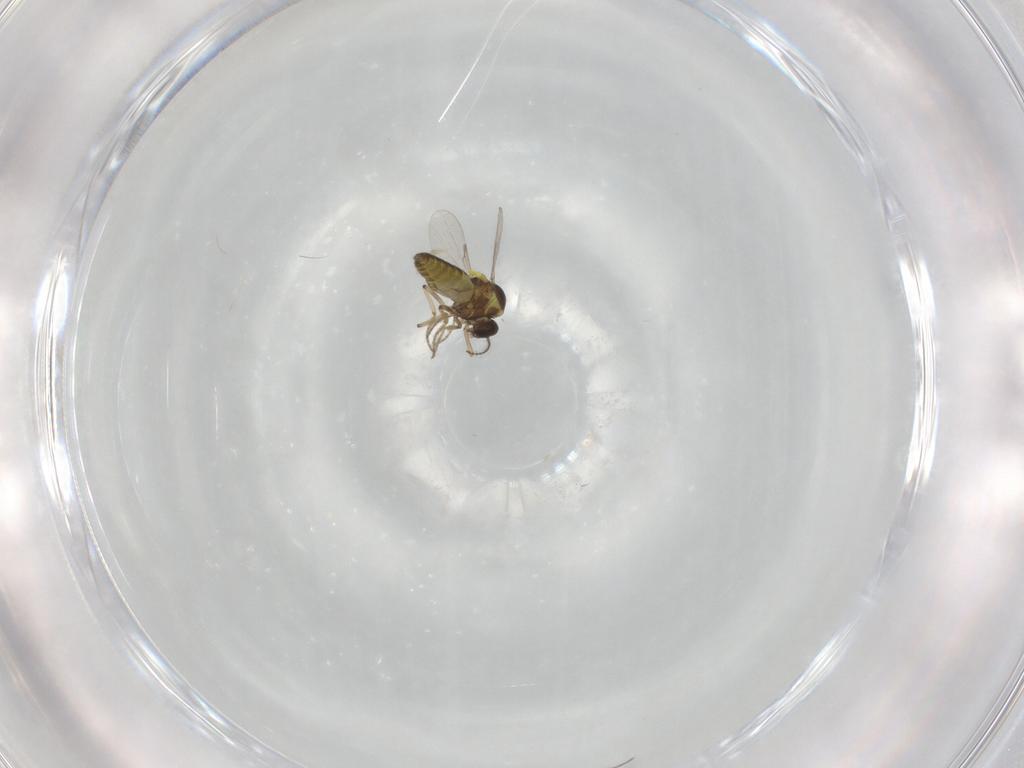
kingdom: Animalia
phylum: Arthropoda
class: Insecta
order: Diptera
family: Ceratopogonidae
